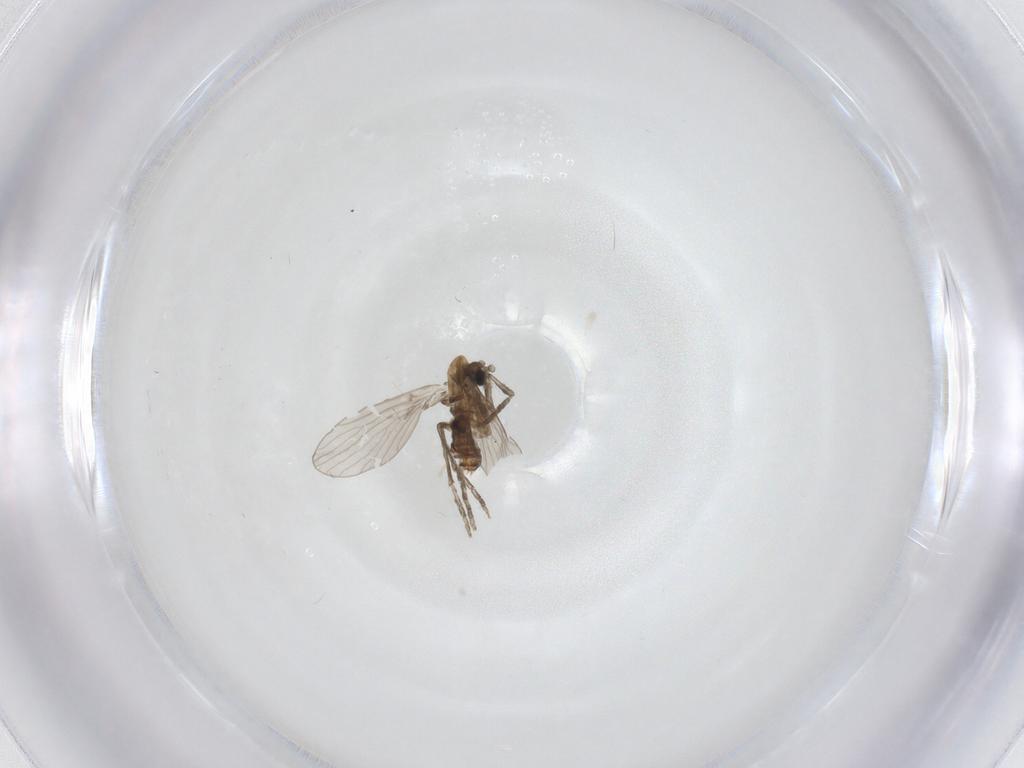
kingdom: Animalia
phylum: Arthropoda
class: Insecta
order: Diptera
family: Psychodidae
